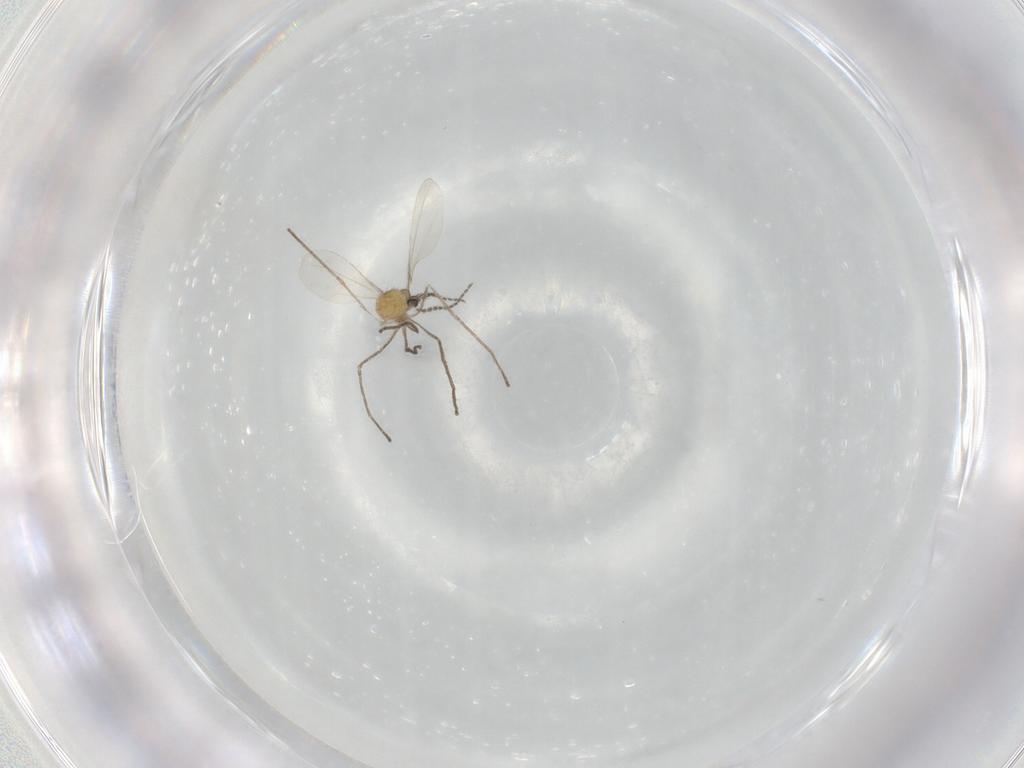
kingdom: Animalia
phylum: Arthropoda
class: Insecta
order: Diptera
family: Cecidomyiidae
